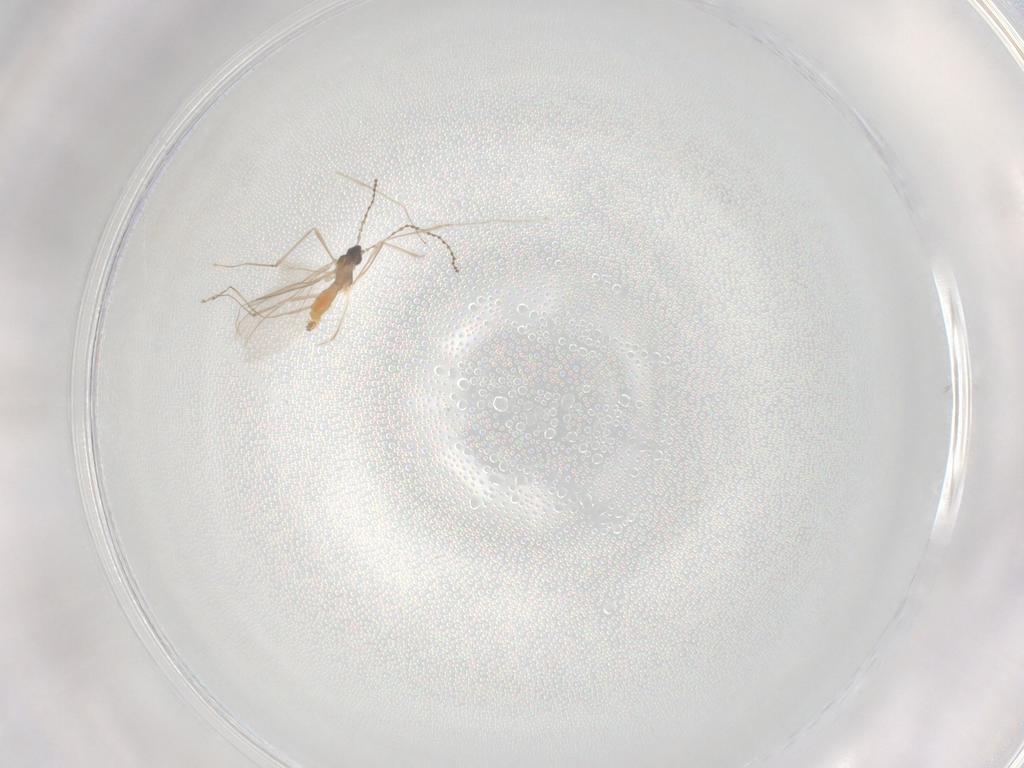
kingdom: Animalia
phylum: Arthropoda
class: Insecta
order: Diptera
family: Cecidomyiidae
